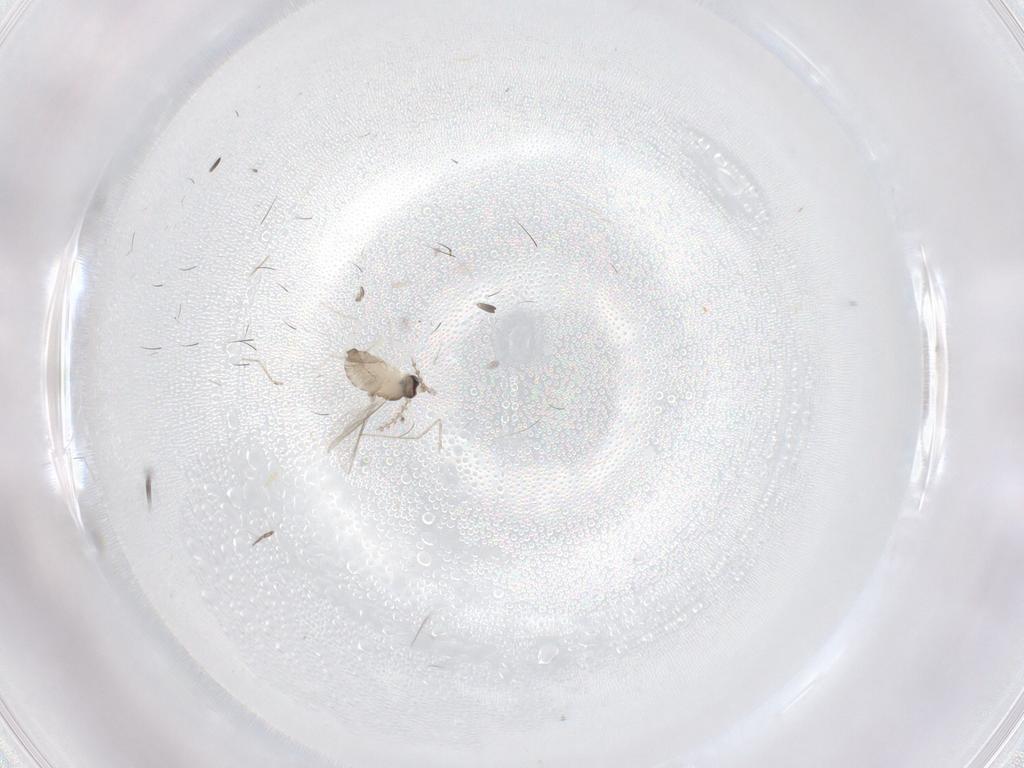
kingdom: Animalia
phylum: Arthropoda
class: Insecta
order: Diptera
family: Cecidomyiidae
